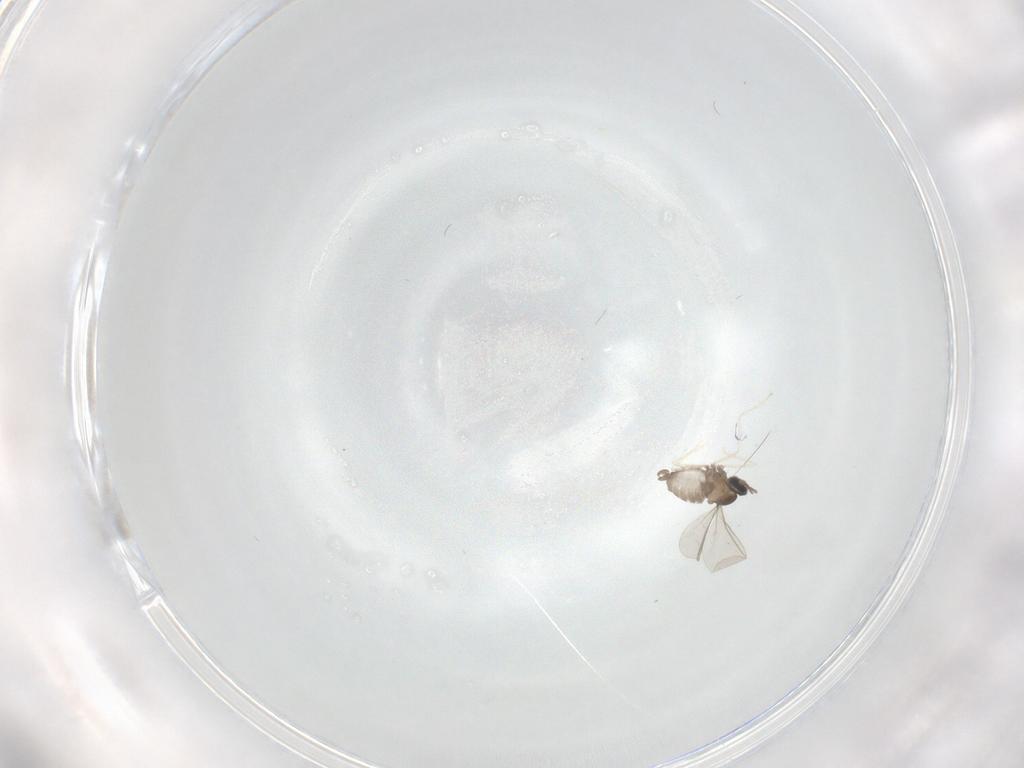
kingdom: Animalia
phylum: Arthropoda
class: Insecta
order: Diptera
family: Cecidomyiidae
